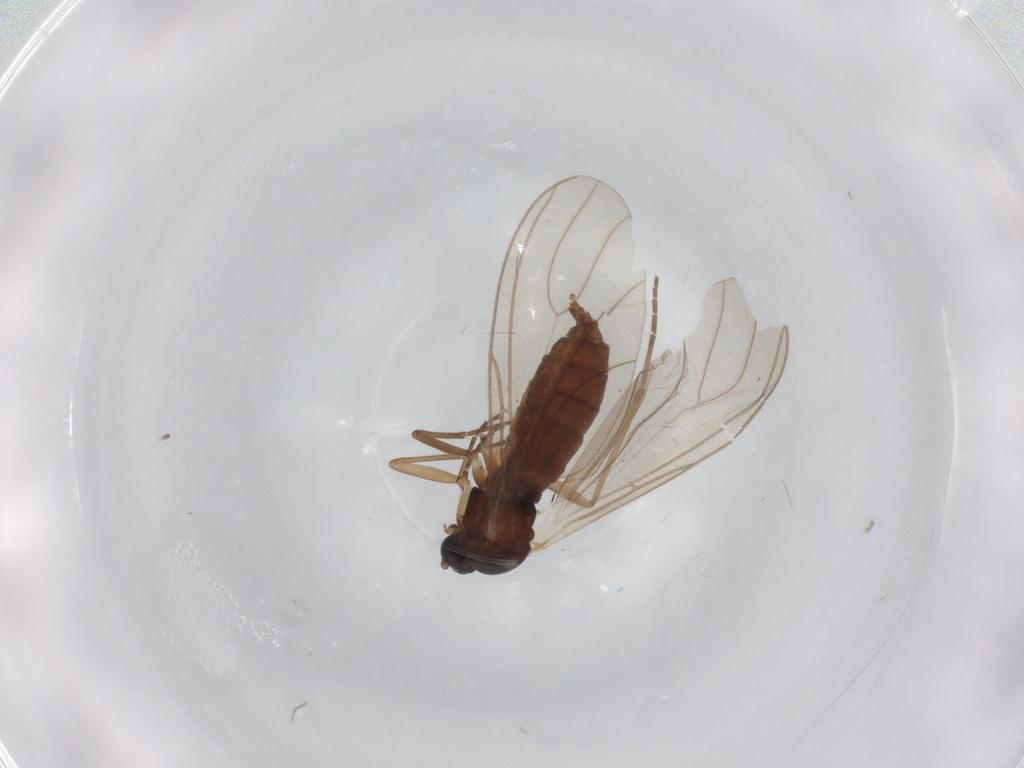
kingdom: Animalia
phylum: Arthropoda
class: Insecta
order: Diptera
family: Sciaridae
